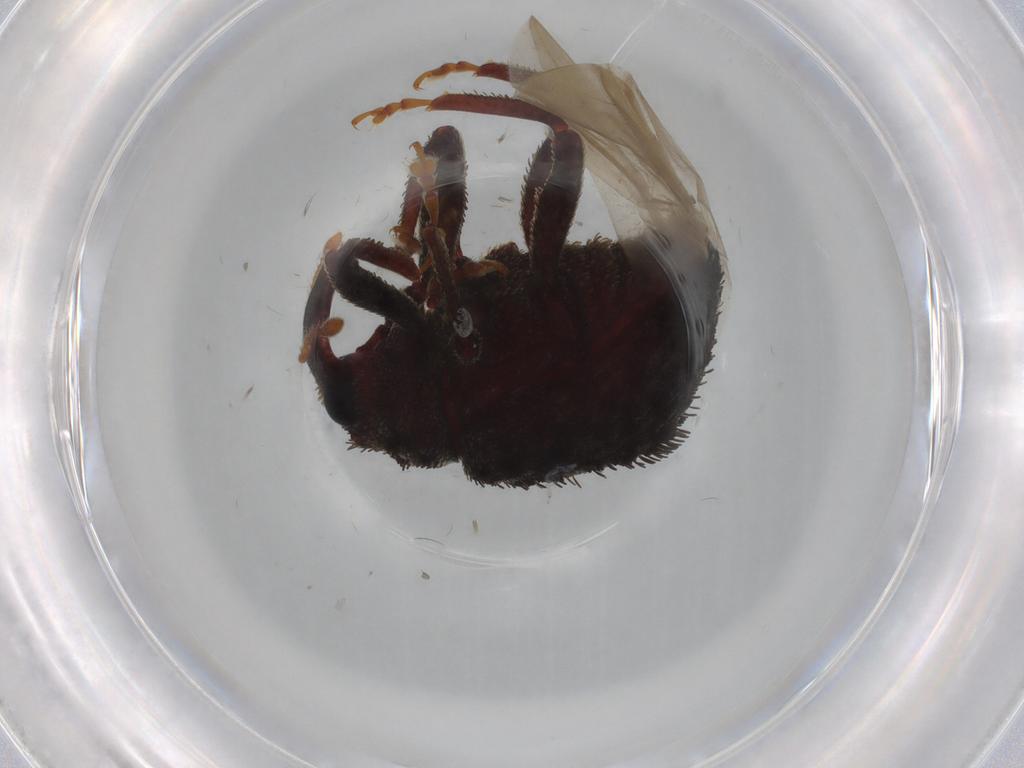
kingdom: Animalia
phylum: Arthropoda
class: Insecta
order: Coleoptera
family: Curculionidae
